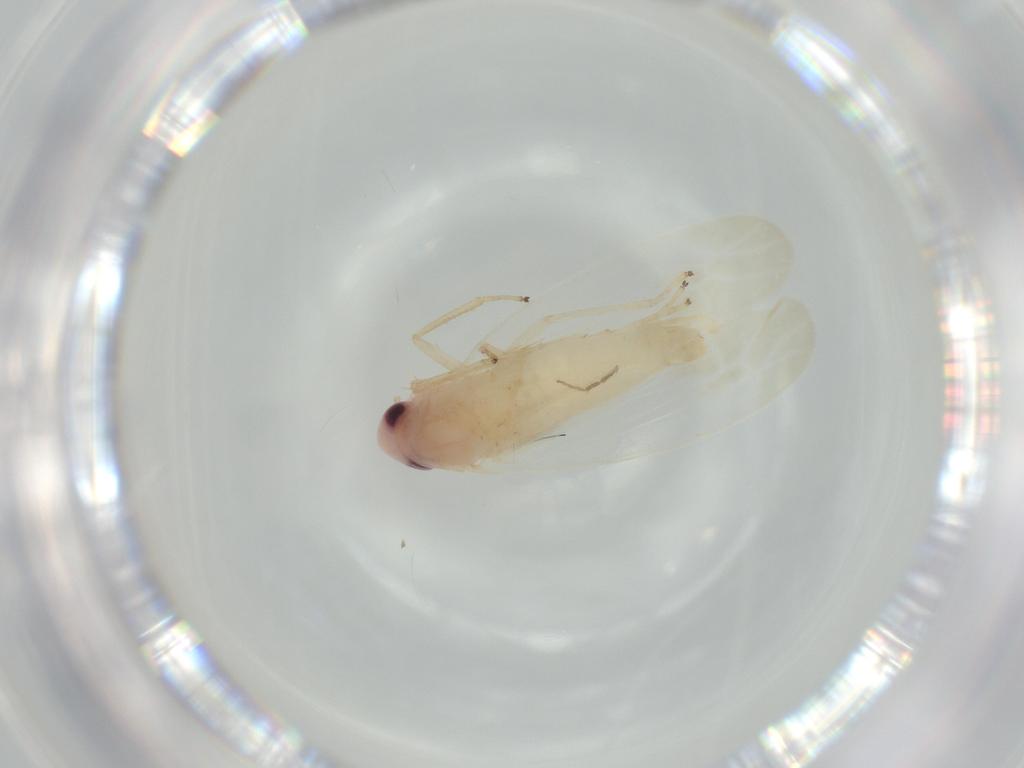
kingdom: Animalia
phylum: Arthropoda
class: Insecta
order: Hemiptera
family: Cicadellidae
